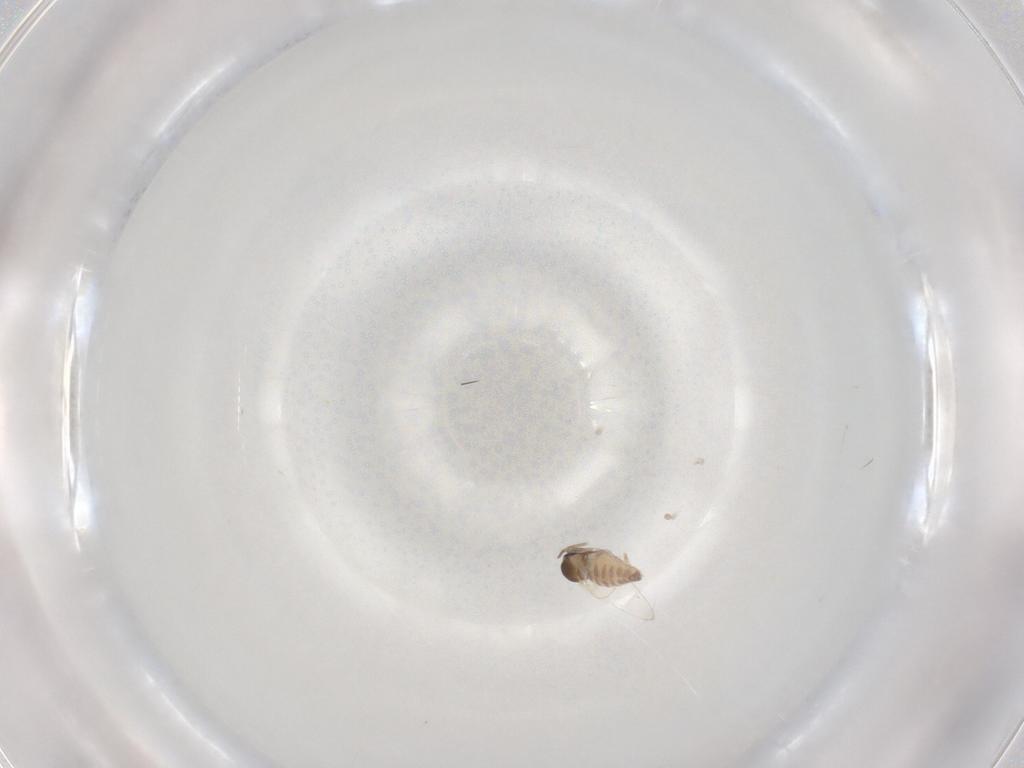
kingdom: Animalia
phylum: Arthropoda
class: Insecta
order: Diptera
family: Cecidomyiidae
